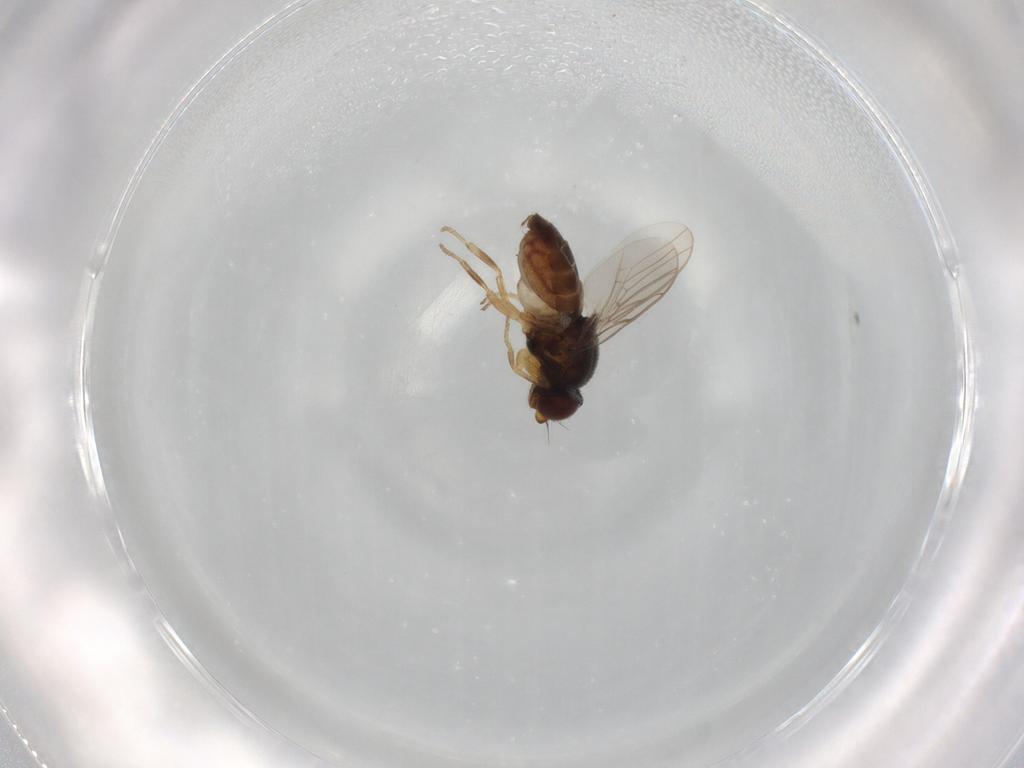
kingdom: Animalia
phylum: Arthropoda
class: Insecta
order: Diptera
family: Chloropidae
